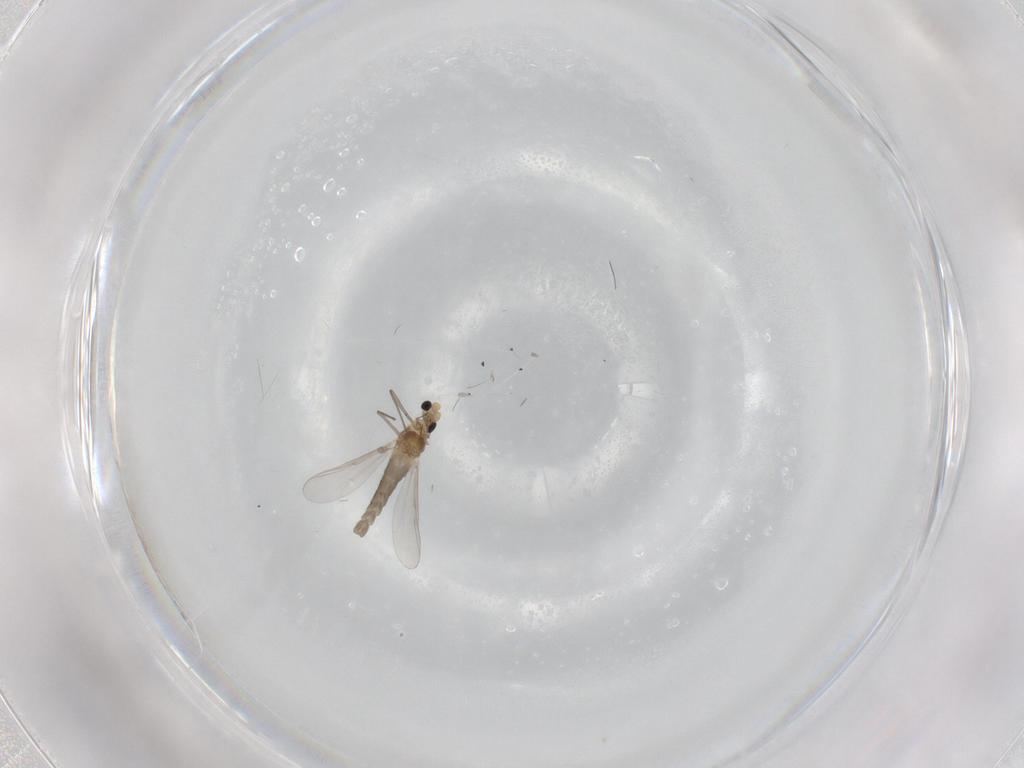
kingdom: Animalia
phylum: Arthropoda
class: Insecta
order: Diptera
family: Chironomidae
